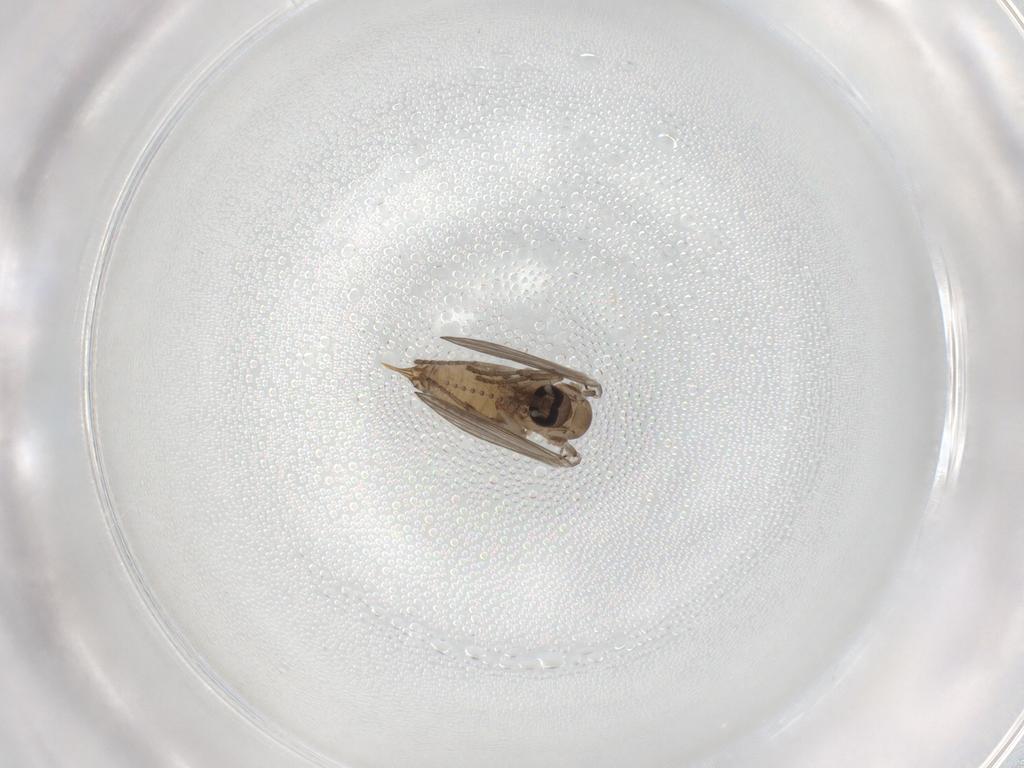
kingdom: Animalia
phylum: Arthropoda
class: Insecta
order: Diptera
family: Psychodidae
